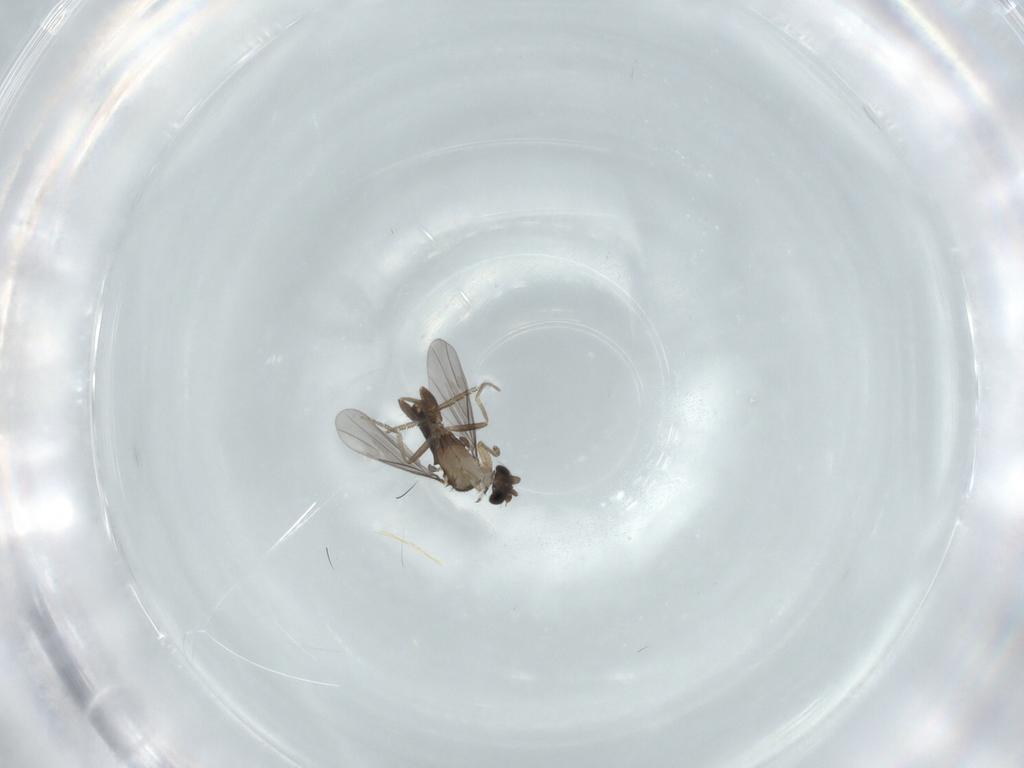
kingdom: Animalia
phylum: Arthropoda
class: Insecta
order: Diptera
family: Phoridae
